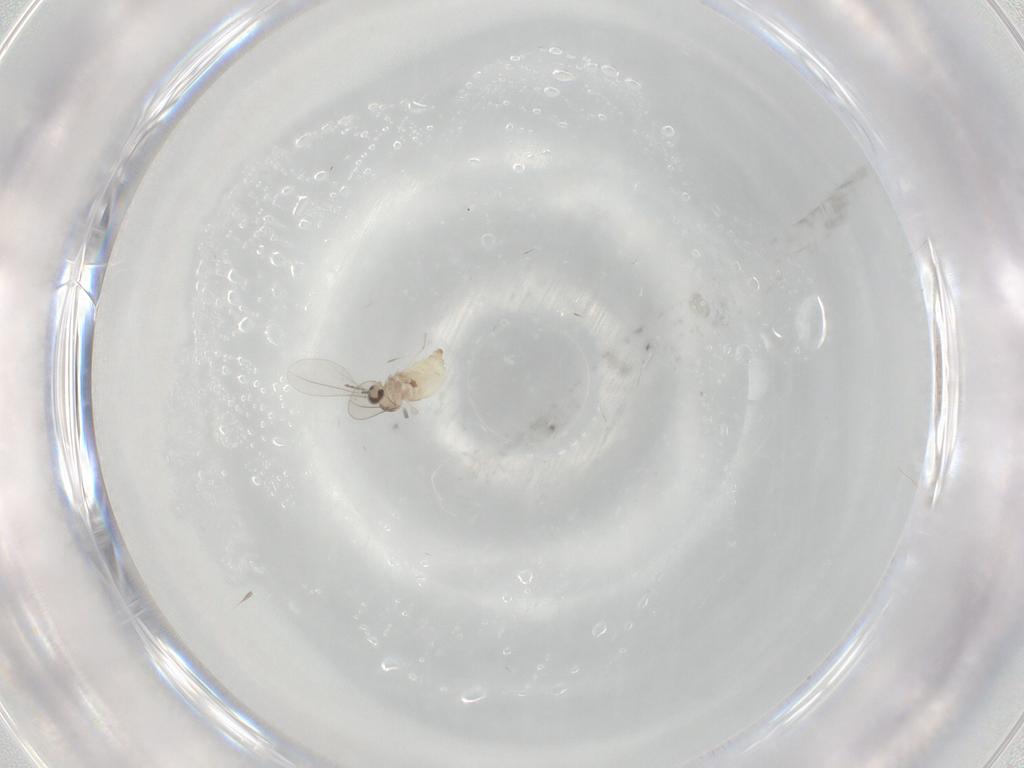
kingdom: Animalia
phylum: Arthropoda
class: Insecta
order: Diptera
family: Cecidomyiidae
